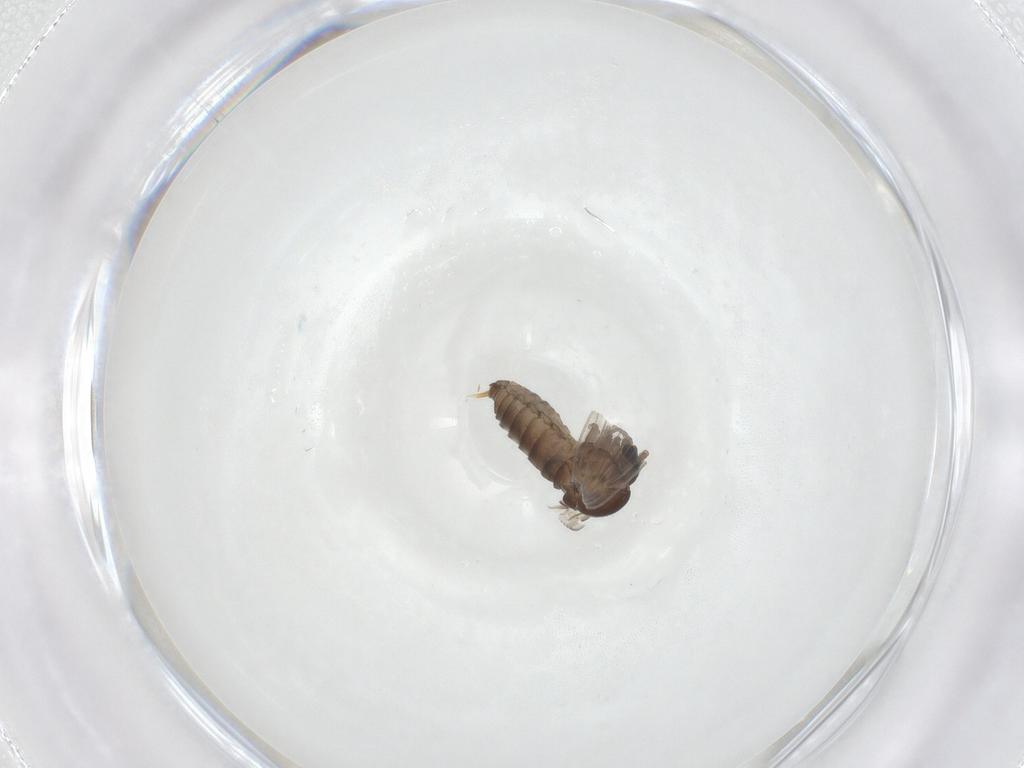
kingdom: Animalia
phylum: Arthropoda
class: Insecta
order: Diptera
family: Psychodidae
